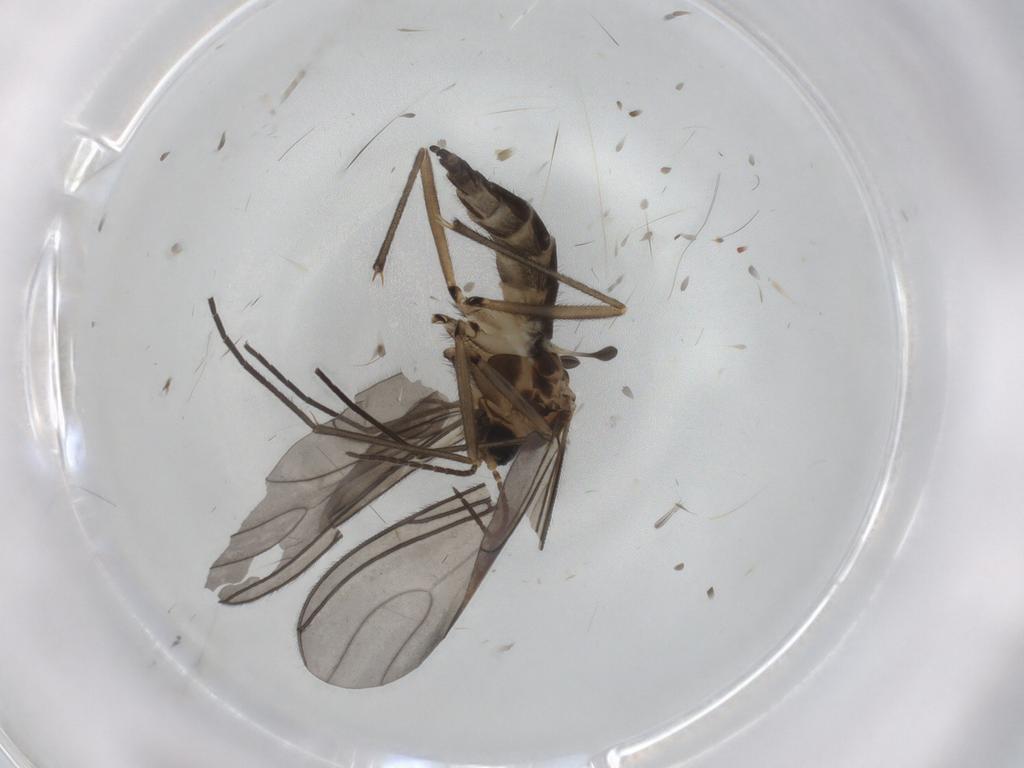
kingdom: Animalia
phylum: Arthropoda
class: Insecta
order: Diptera
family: Sciaridae
